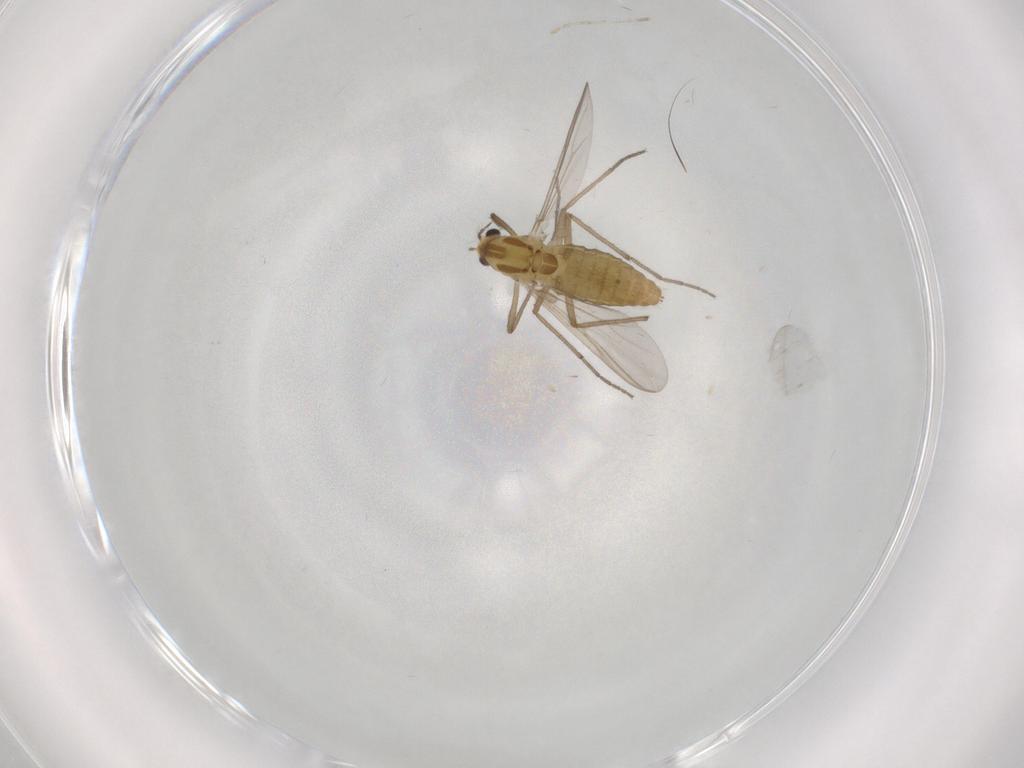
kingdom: Animalia
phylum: Arthropoda
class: Insecta
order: Diptera
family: Chironomidae
